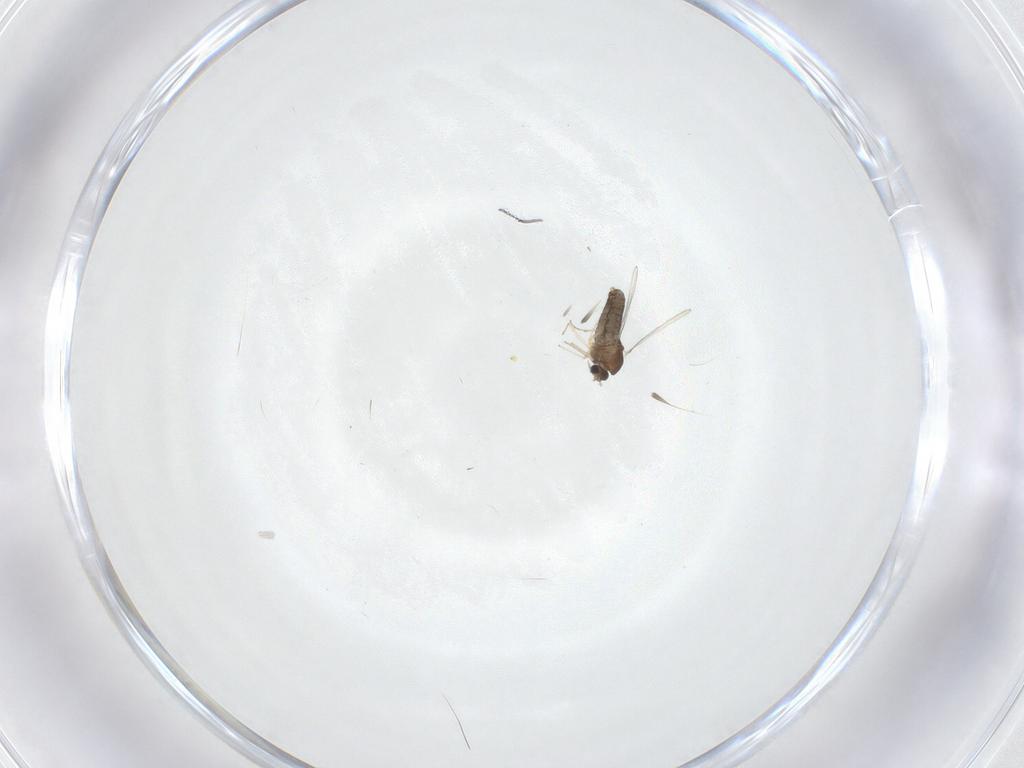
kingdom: Animalia
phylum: Arthropoda
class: Insecta
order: Diptera
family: Chironomidae
